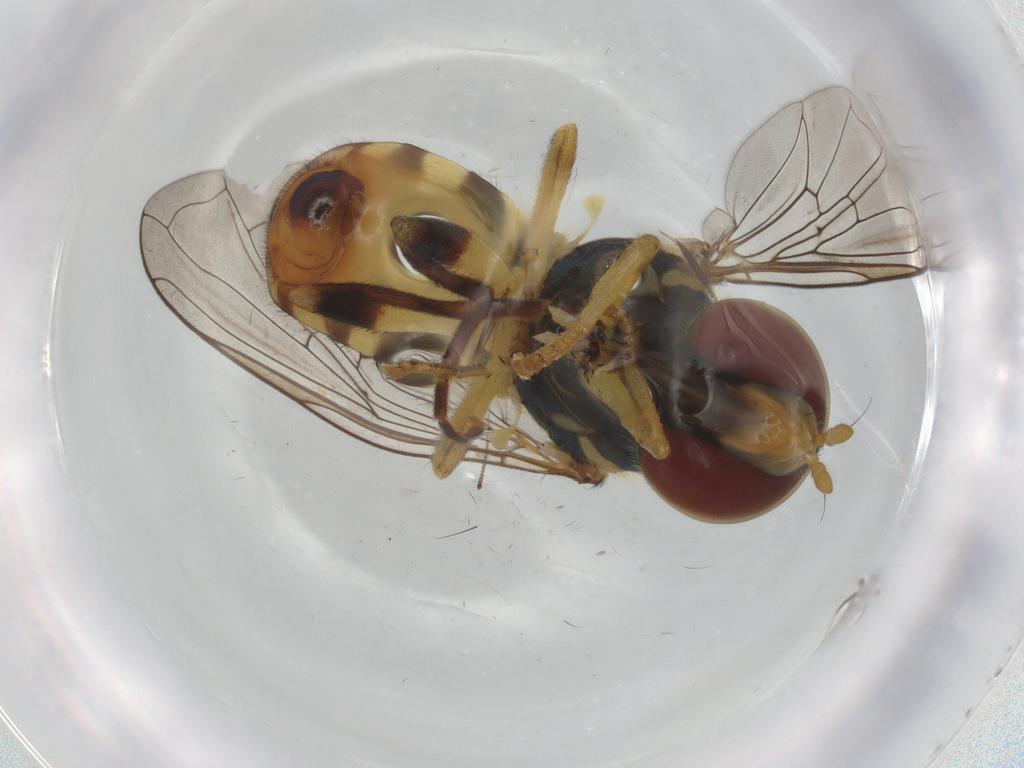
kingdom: Animalia
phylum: Arthropoda
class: Insecta
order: Diptera
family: Syrphidae
